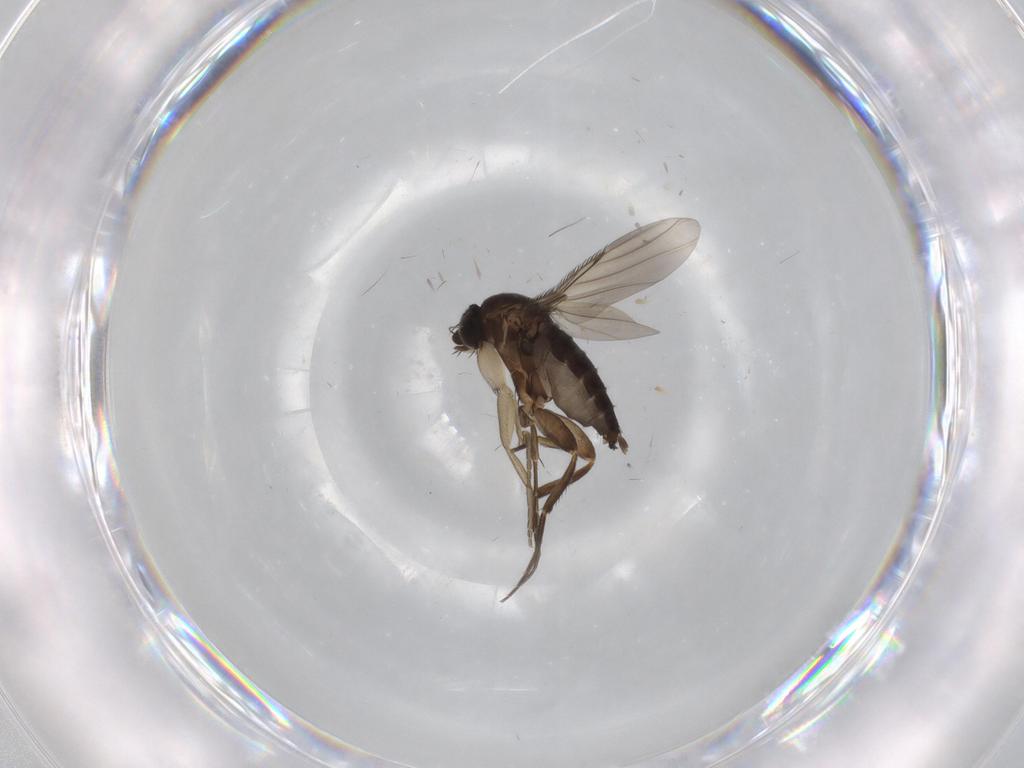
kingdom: Animalia
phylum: Arthropoda
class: Insecta
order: Diptera
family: Phoridae
